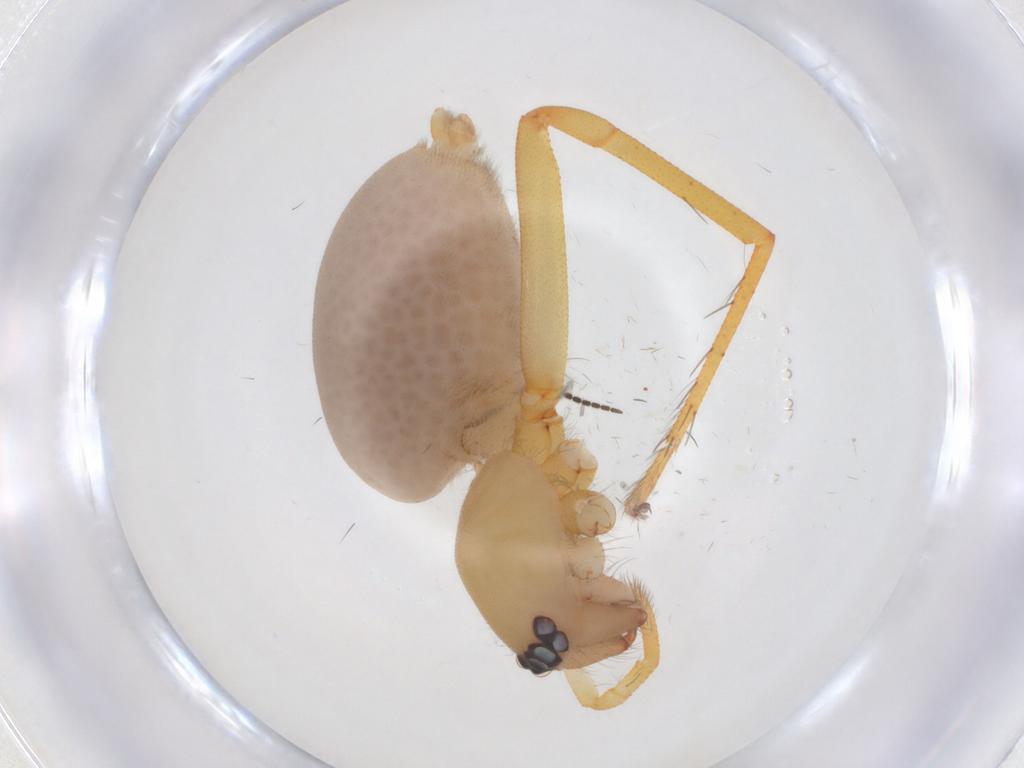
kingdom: Animalia
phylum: Arthropoda
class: Arachnida
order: Araneae
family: Dysderidae
